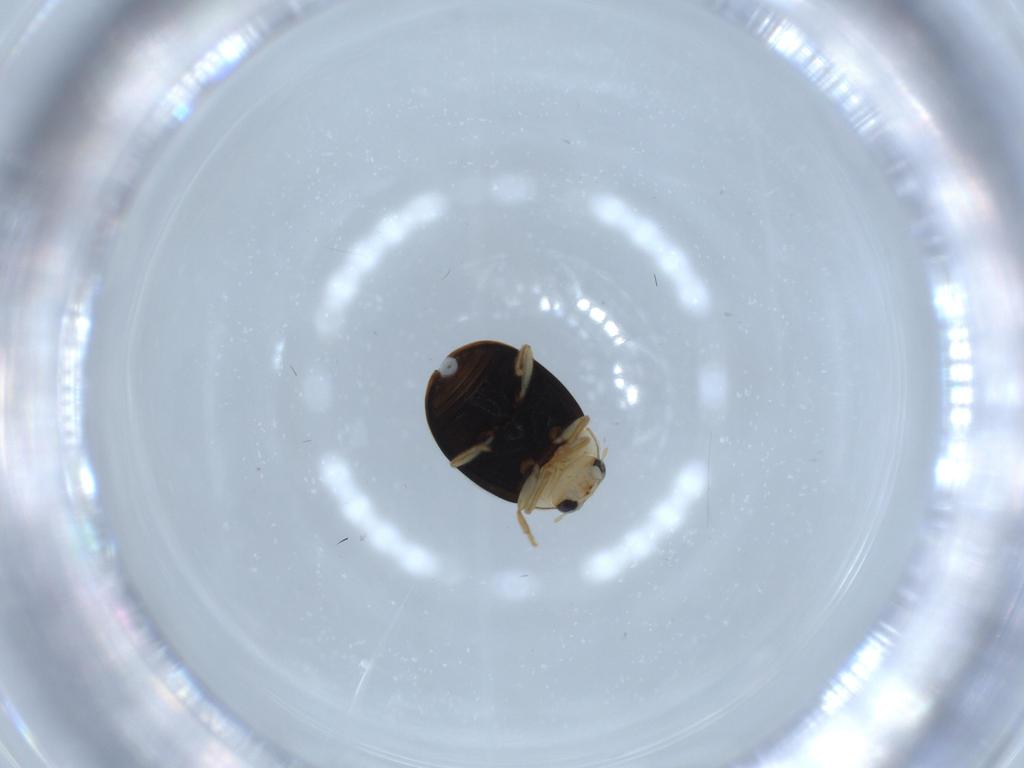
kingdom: Animalia
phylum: Arthropoda
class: Insecta
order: Coleoptera
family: Coccinellidae
